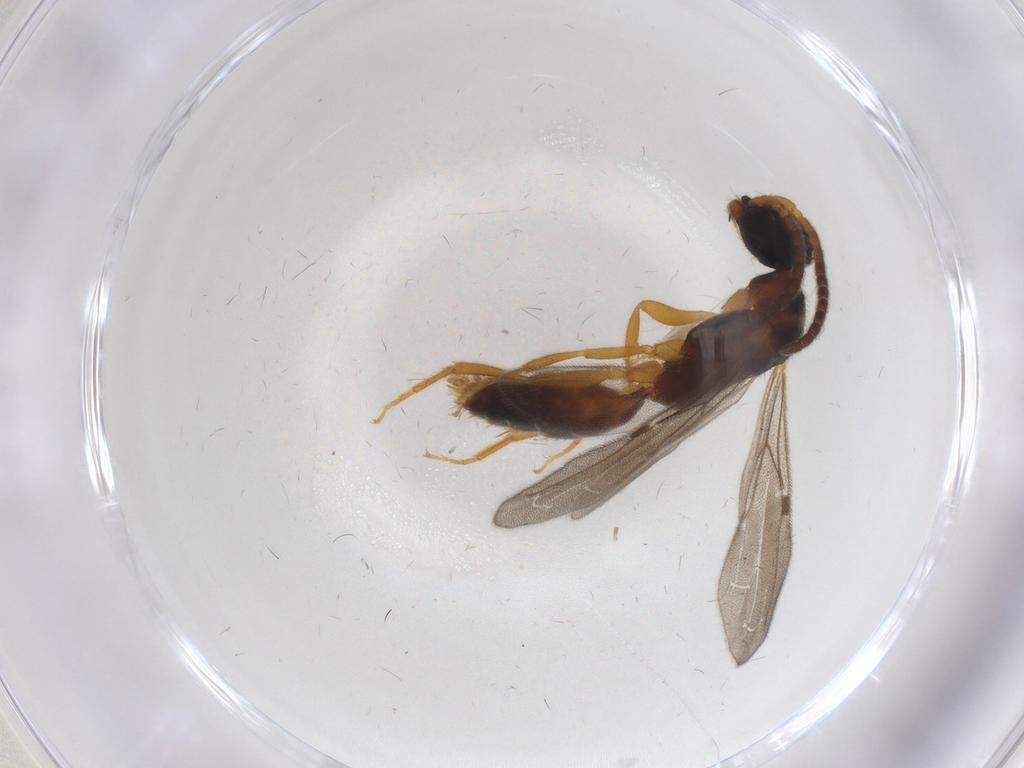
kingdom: Animalia
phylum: Arthropoda
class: Insecta
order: Hymenoptera
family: Bethylidae
